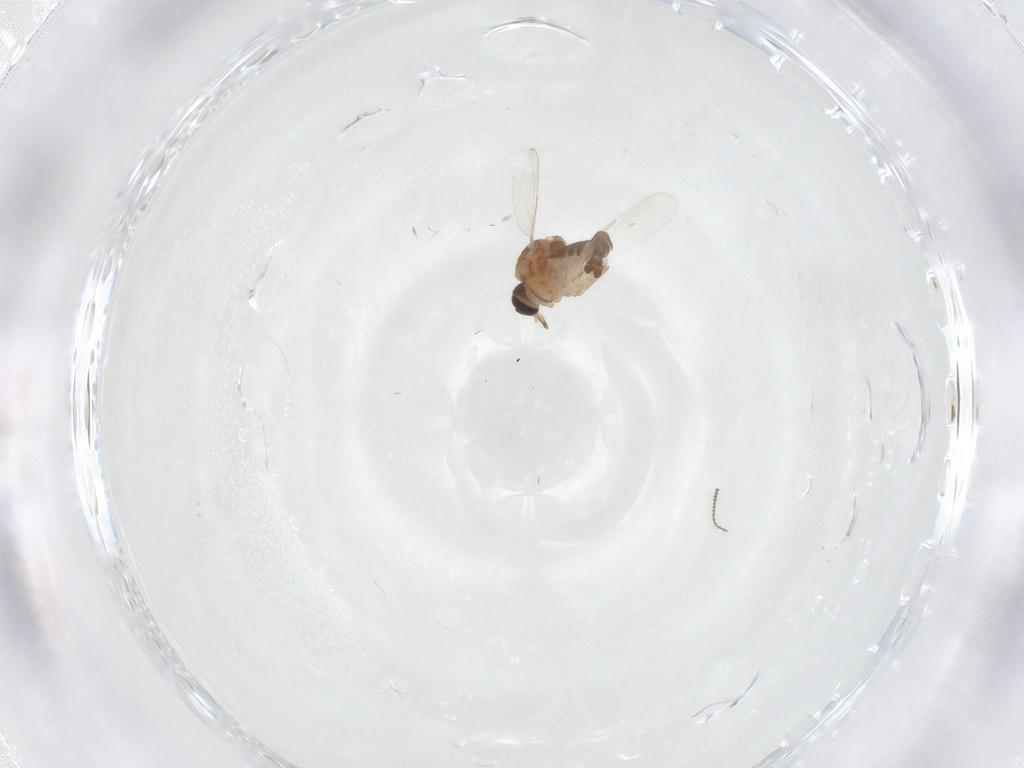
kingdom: Animalia
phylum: Arthropoda
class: Insecta
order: Diptera
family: Ceratopogonidae
